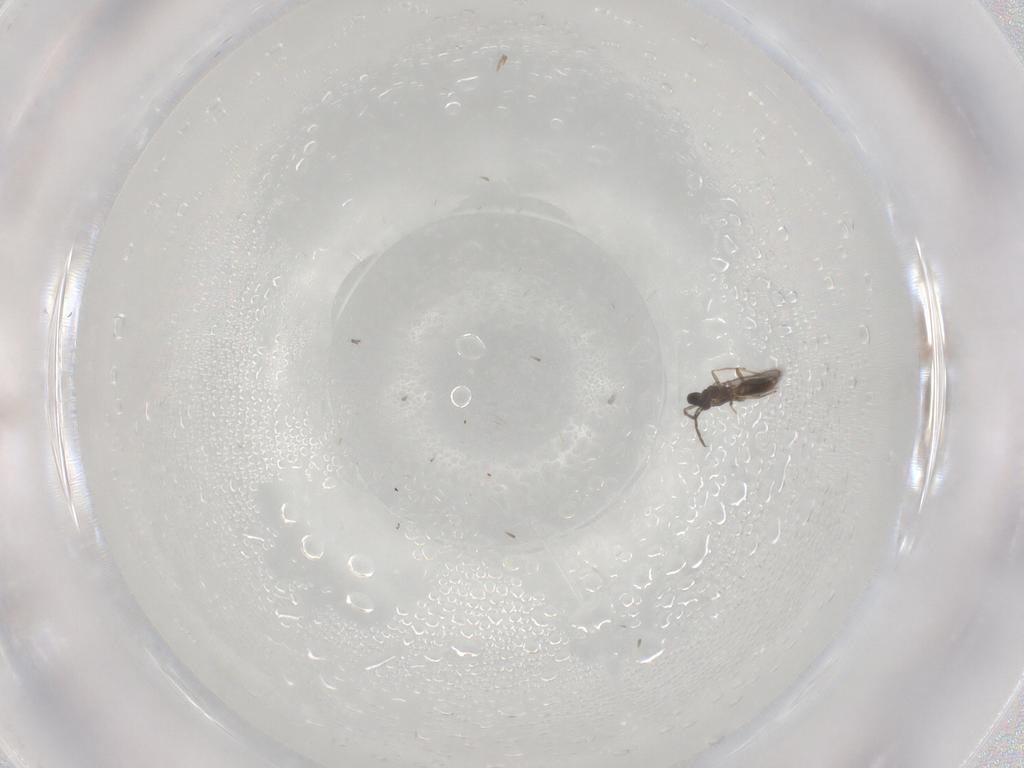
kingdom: Animalia
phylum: Arthropoda
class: Insecta
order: Hymenoptera
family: Eulophidae
